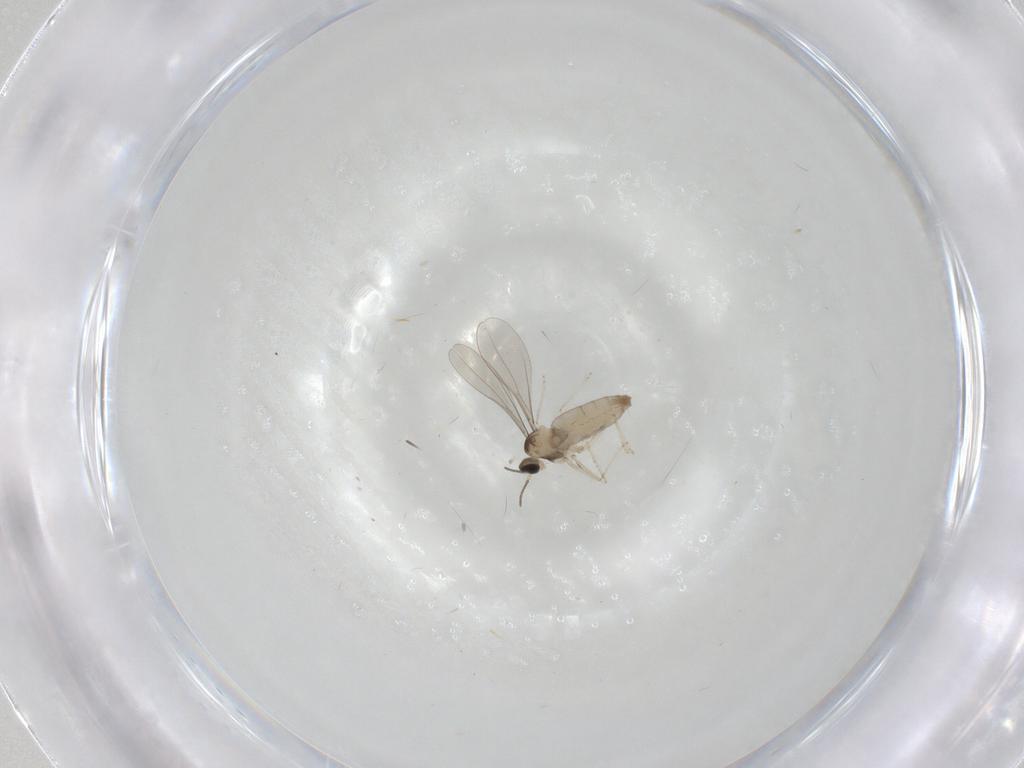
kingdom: Animalia
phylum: Arthropoda
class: Insecta
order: Diptera
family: Ceratopogonidae
